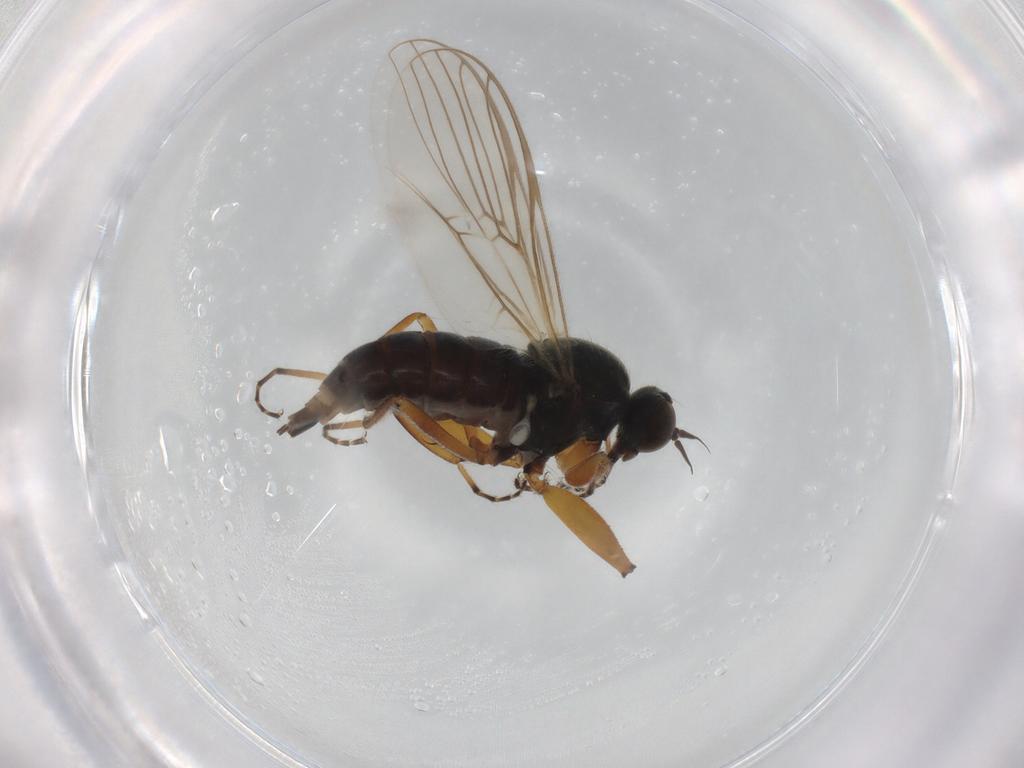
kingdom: Animalia
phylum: Arthropoda
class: Insecta
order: Diptera
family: Hybotidae
